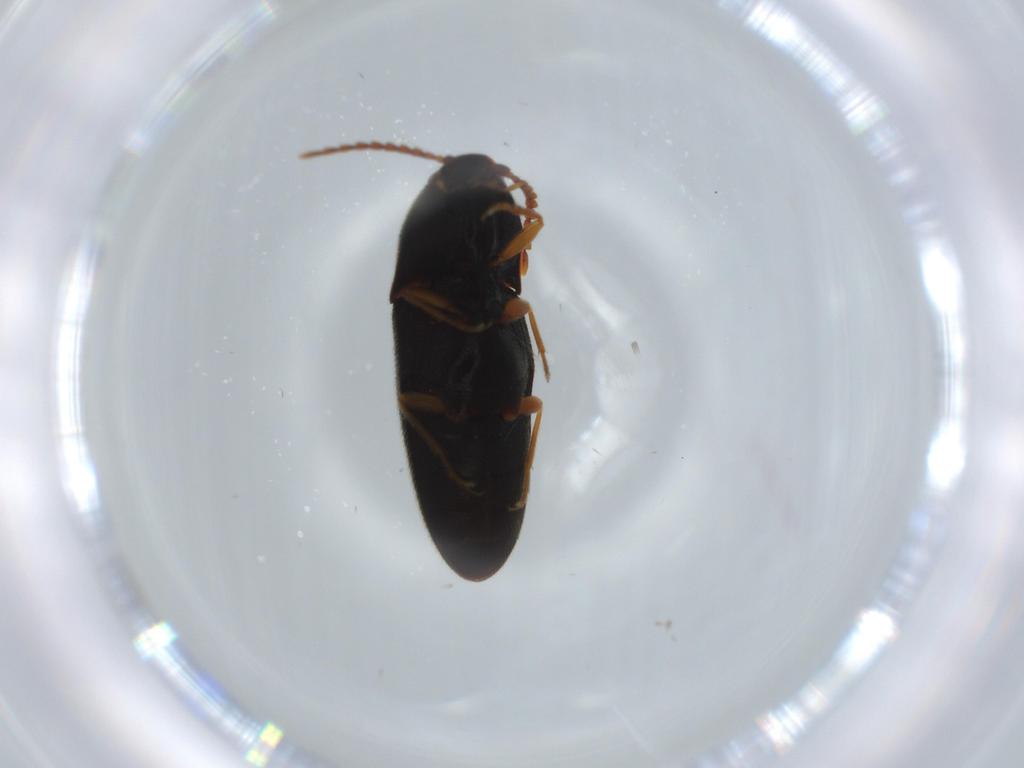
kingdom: Animalia
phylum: Arthropoda
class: Insecta
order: Coleoptera
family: Elateridae
